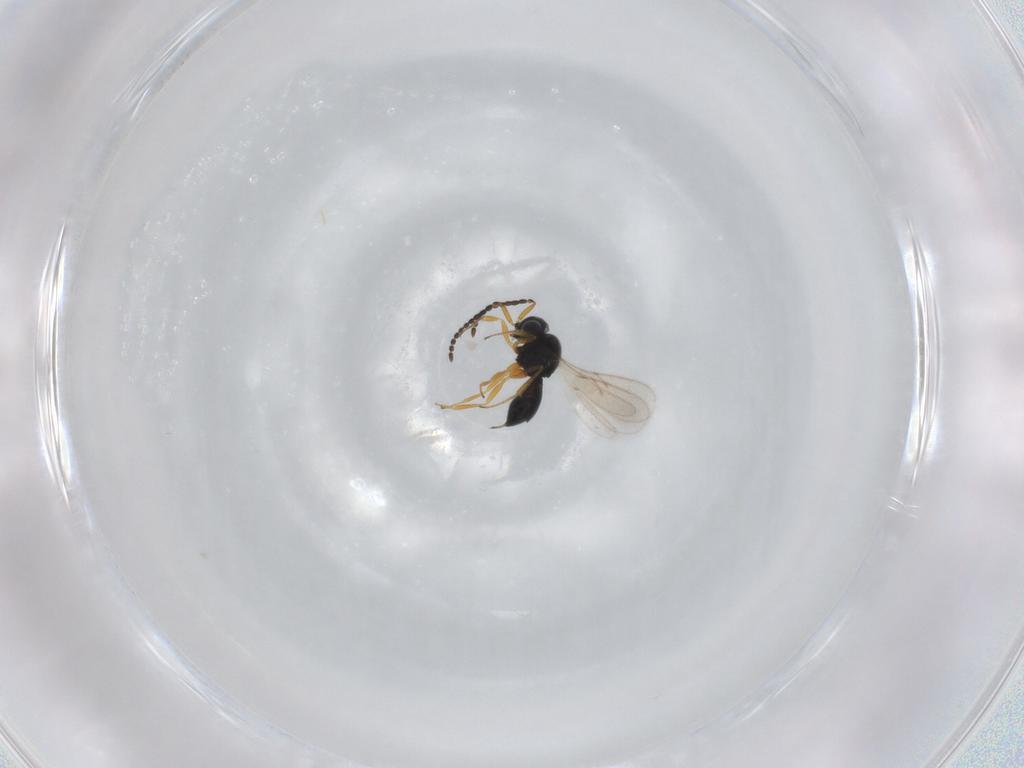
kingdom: Animalia
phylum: Arthropoda
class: Insecta
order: Hymenoptera
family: Scelionidae
